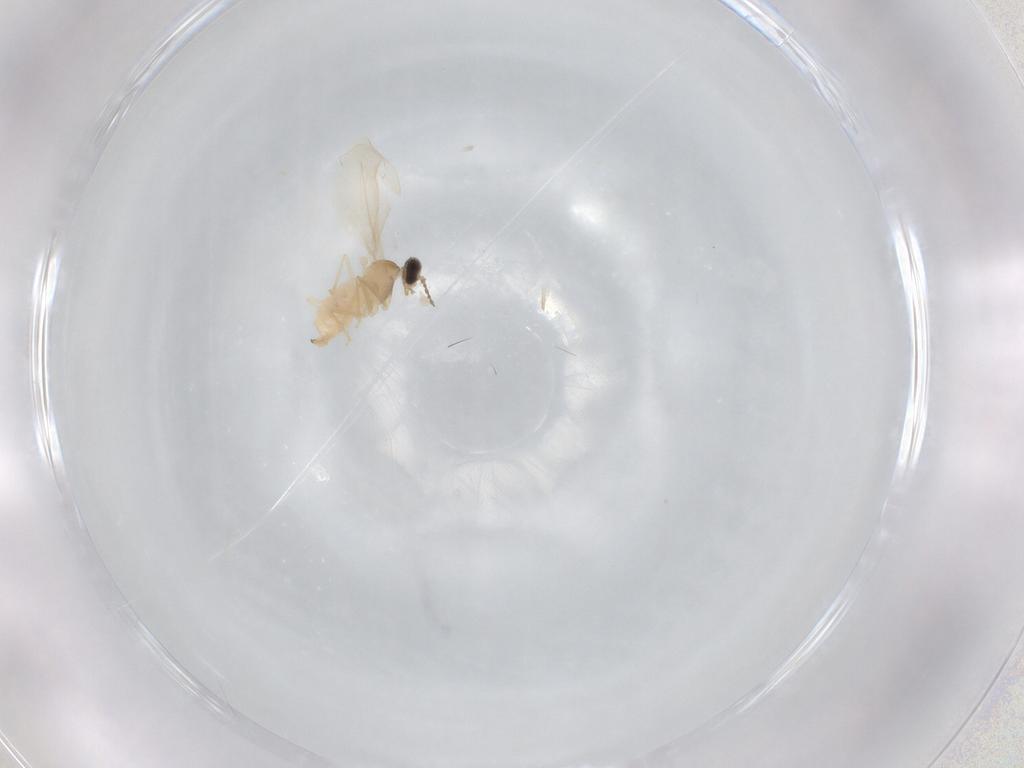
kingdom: Animalia
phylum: Arthropoda
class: Insecta
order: Diptera
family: Cecidomyiidae
